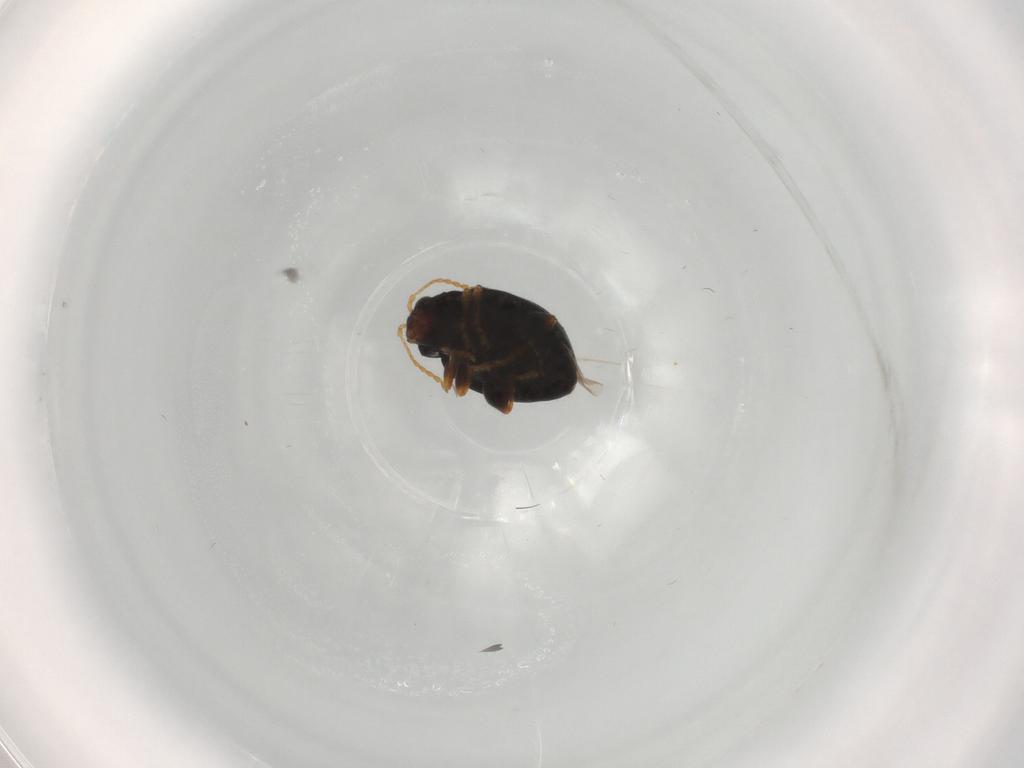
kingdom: Animalia
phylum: Arthropoda
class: Insecta
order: Coleoptera
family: Chrysomelidae
